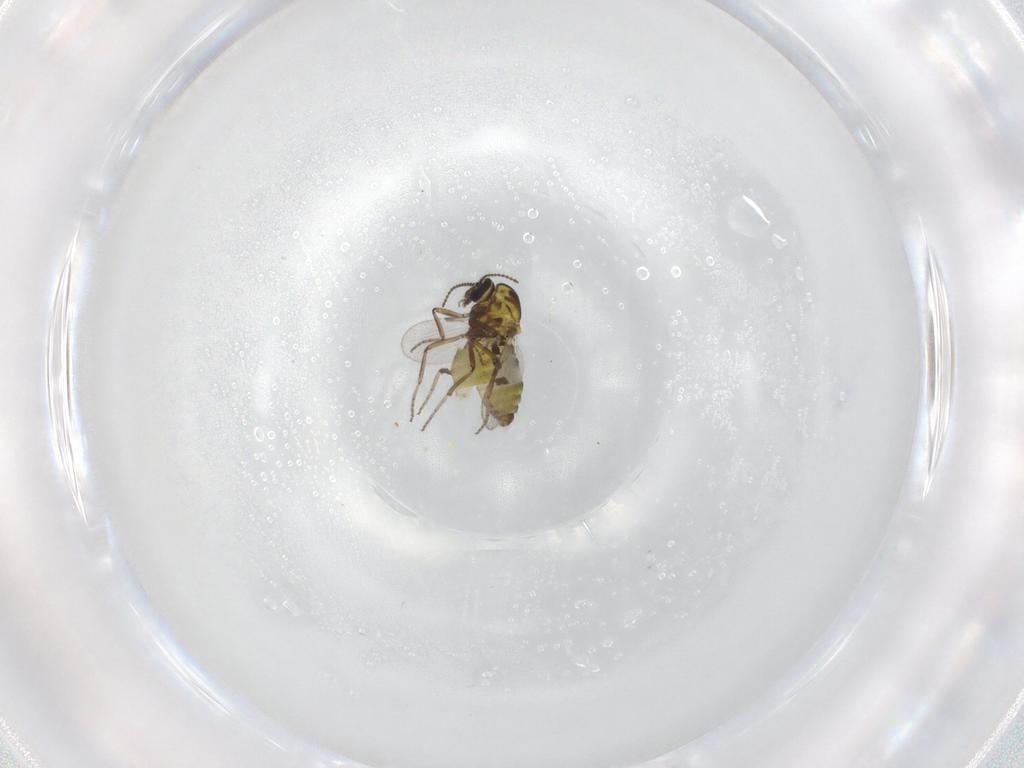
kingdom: Animalia
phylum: Arthropoda
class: Insecta
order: Diptera
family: Ceratopogonidae
